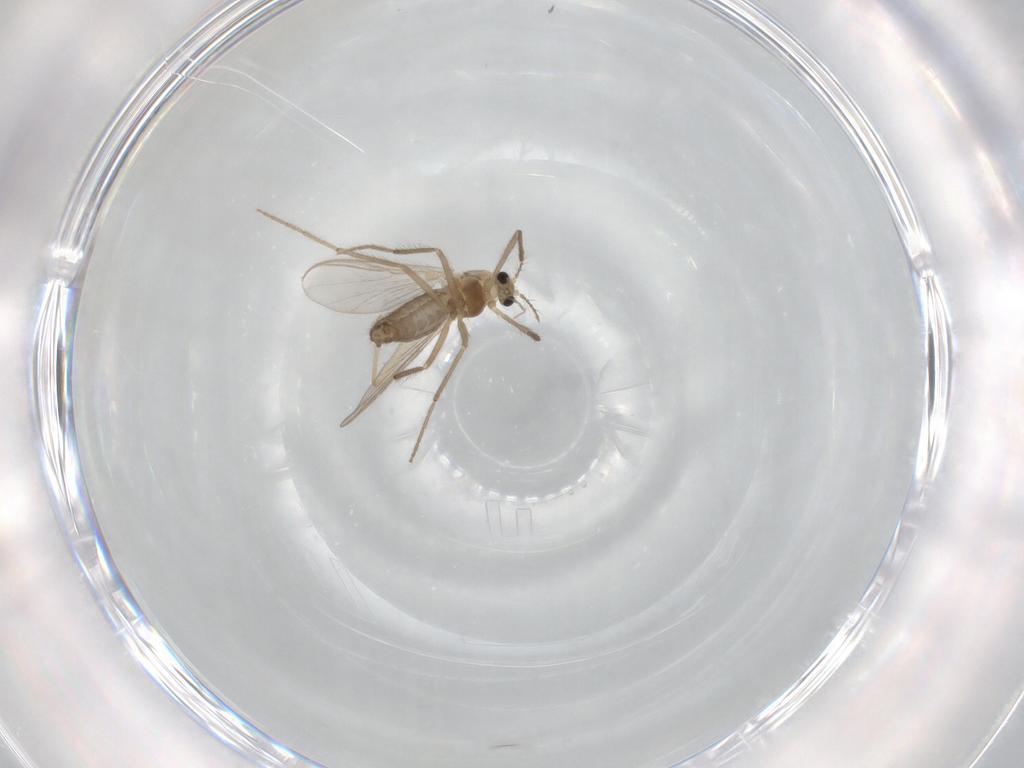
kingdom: Animalia
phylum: Arthropoda
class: Insecta
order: Diptera
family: Chironomidae
